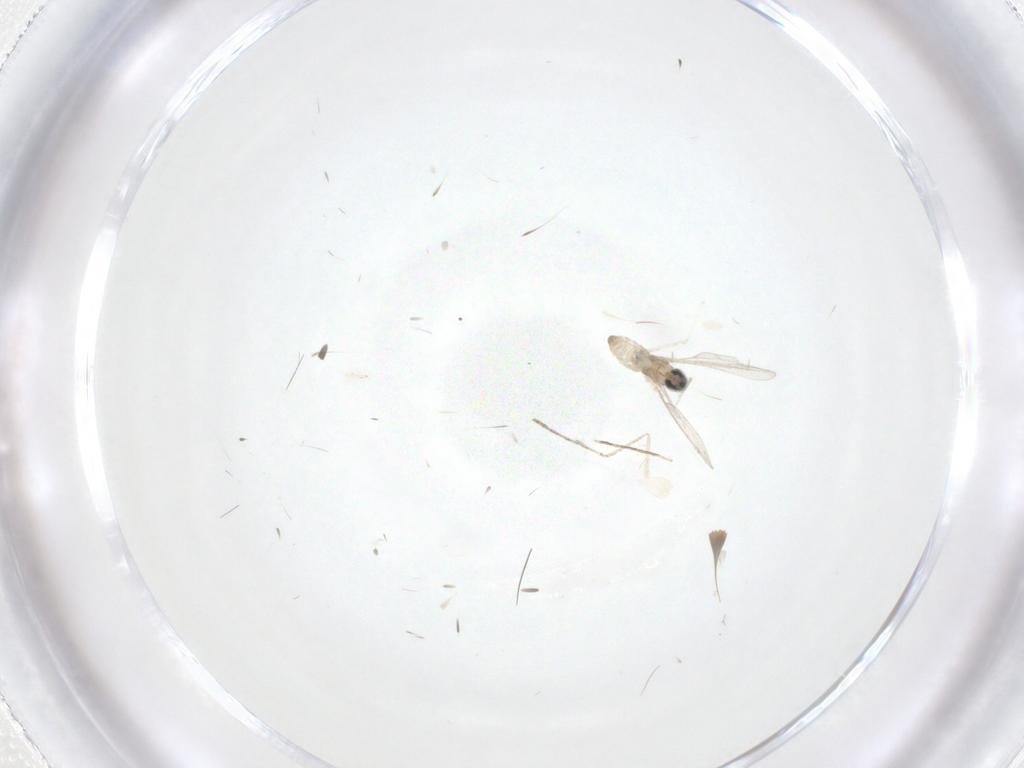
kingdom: Animalia
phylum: Arthropoda
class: Insecta
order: Diptera
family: Cecidomyiidae
